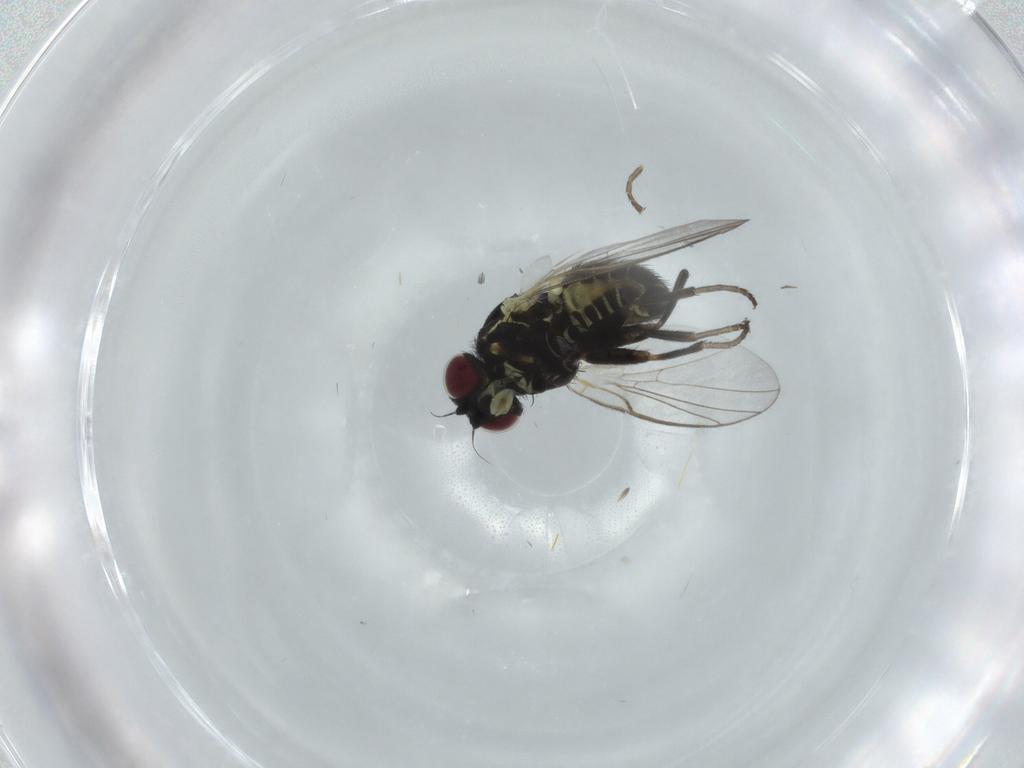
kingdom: Animalia
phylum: Arthropoda
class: Insecta
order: Diptera
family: Agromyzidae
